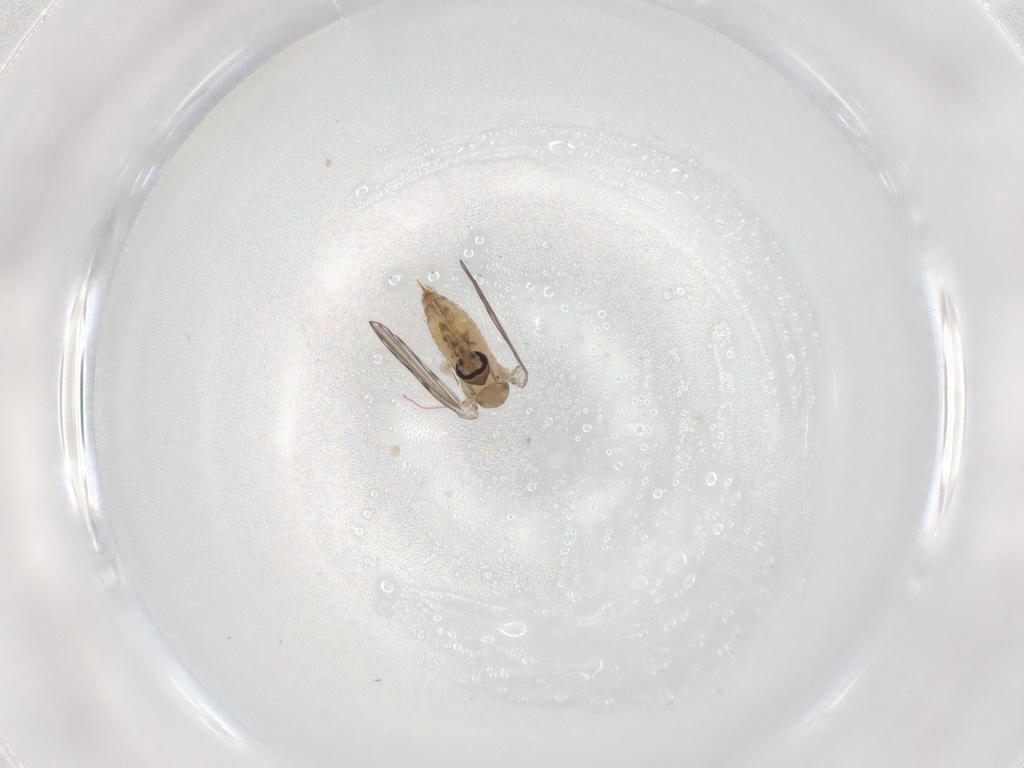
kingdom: Animalia
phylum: Arthropoda
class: Insecta
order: Diptera
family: Psychodidae
